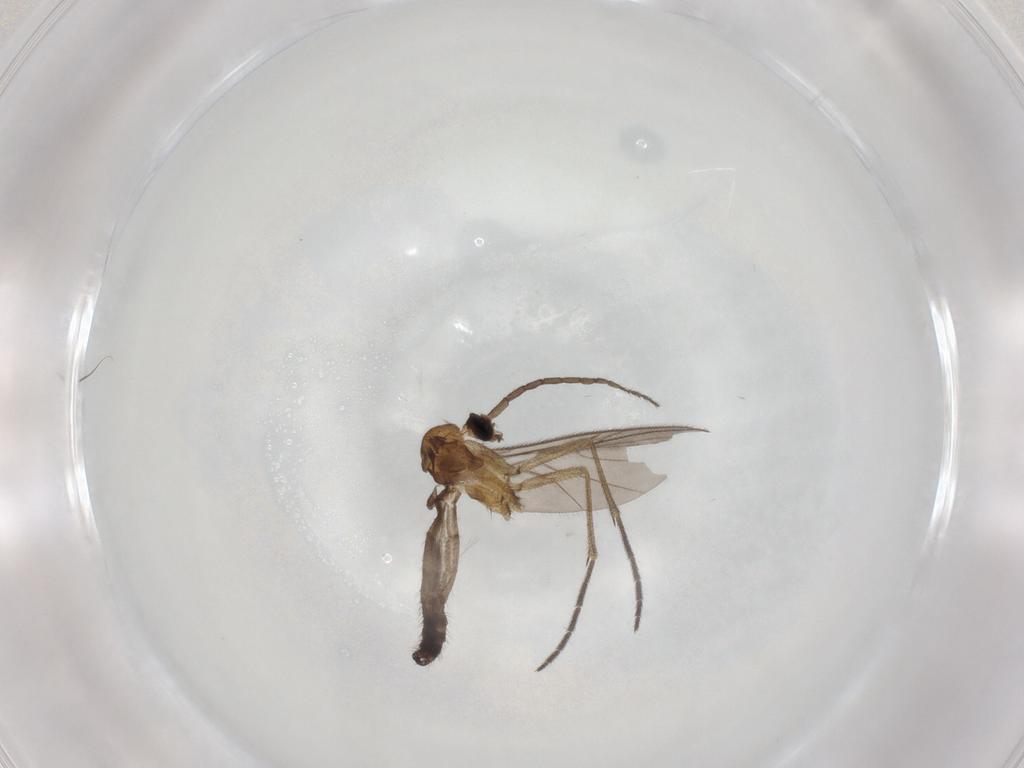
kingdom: Animalia
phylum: Arthropoda
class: Insecta
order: Diptera
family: Keroplatidae
